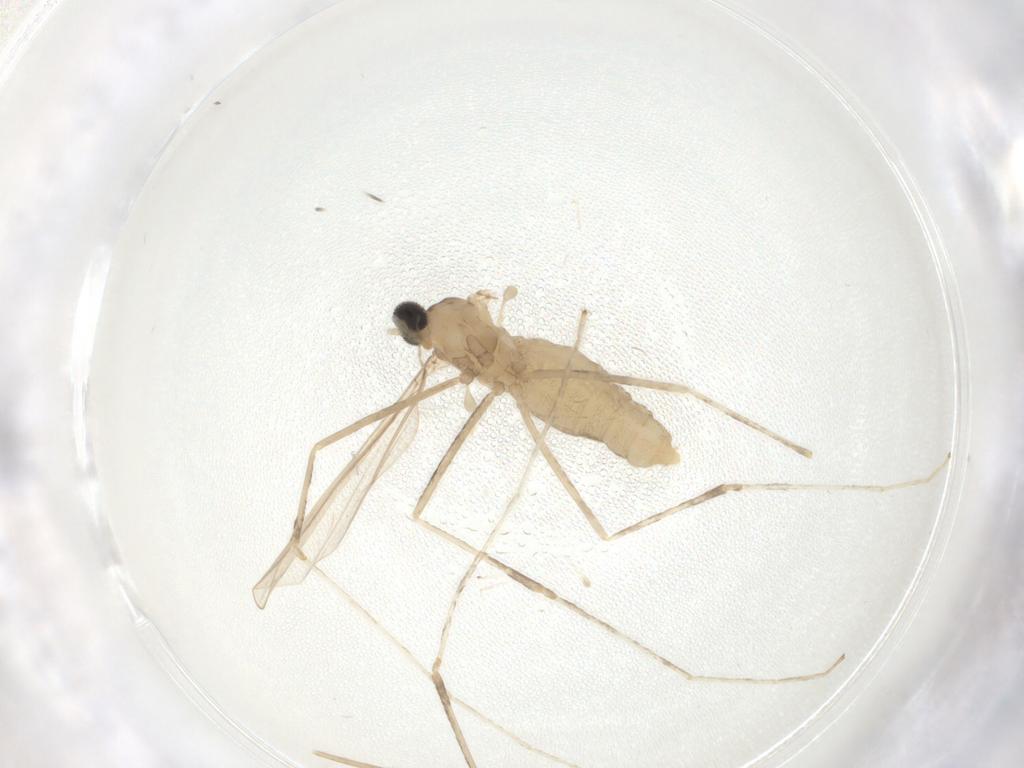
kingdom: Animalia
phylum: Arthropoda
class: Insecta
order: Diptera
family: Cecidomyiidae
